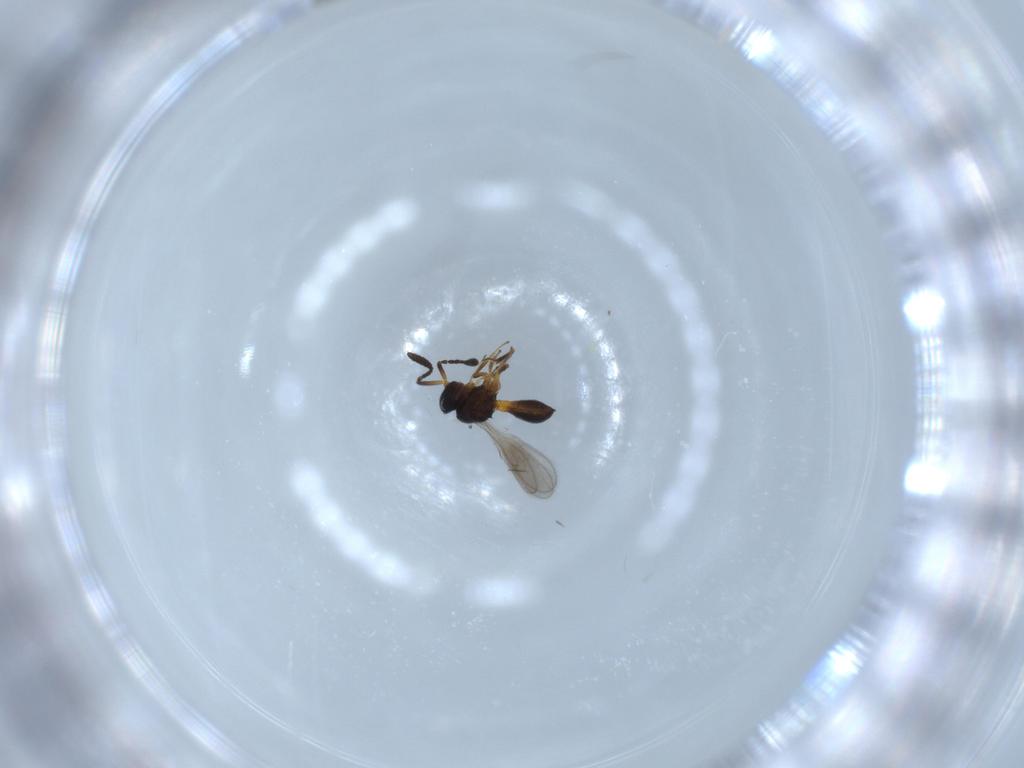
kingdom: Animalia
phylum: Arthropoda
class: Insecta
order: Hymenoptera
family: Scelionidae
